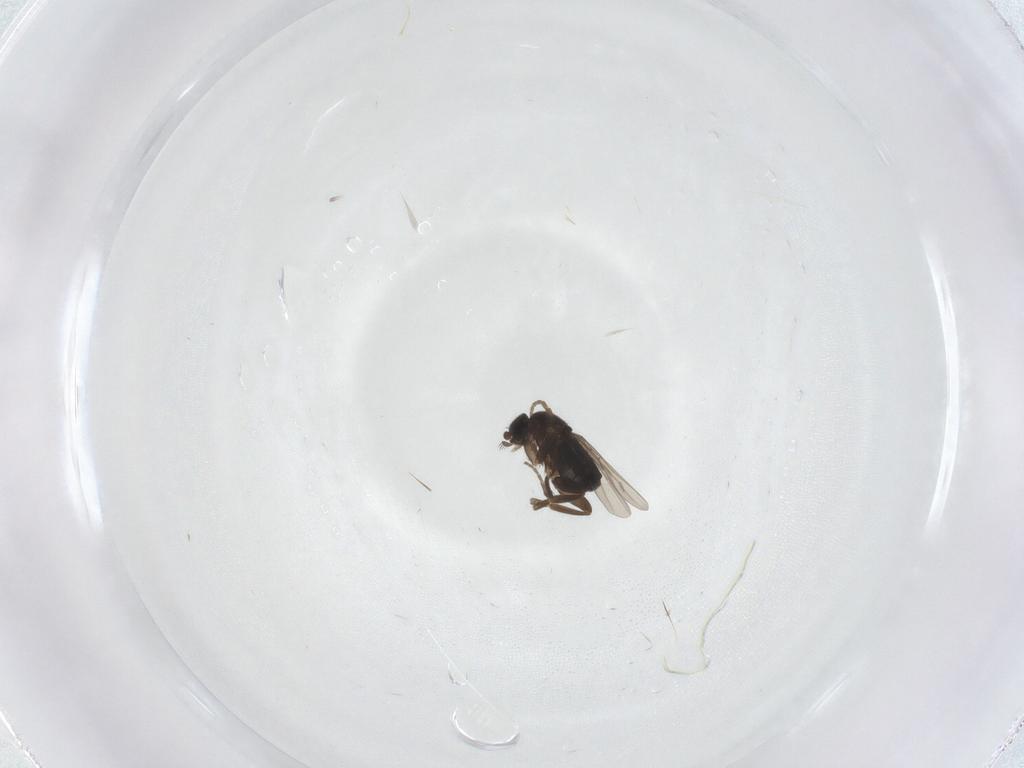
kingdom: Animalia
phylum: Arthropoda
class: Insecta
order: Diptera
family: Phoridae
